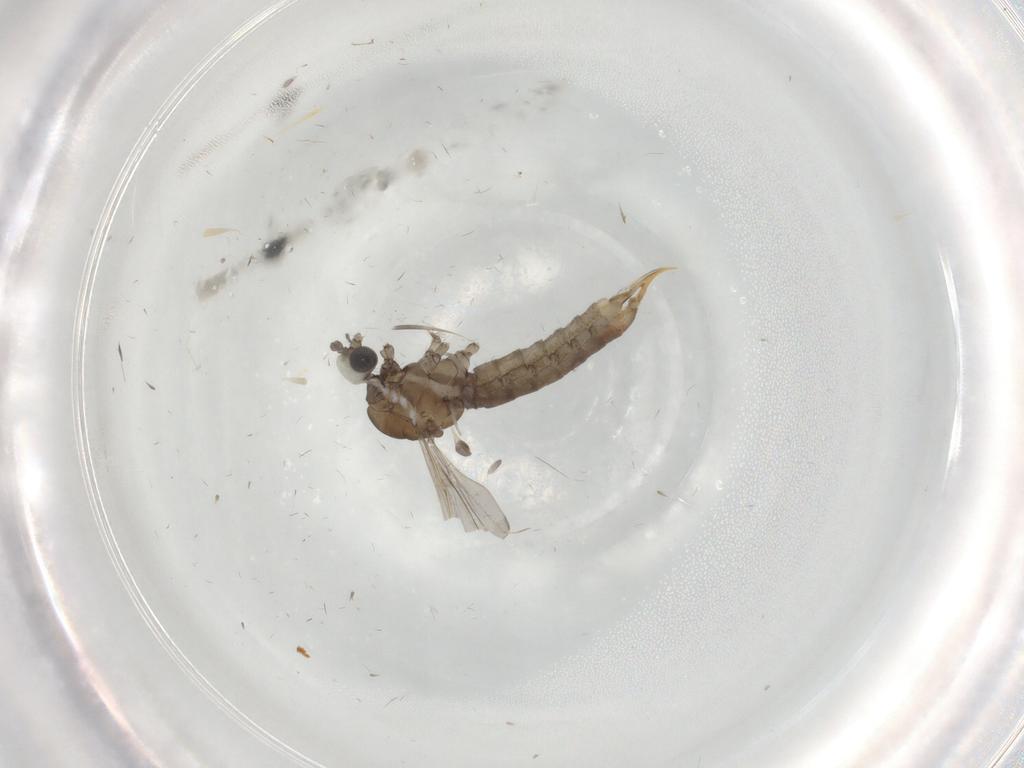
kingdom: Animalia
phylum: Arthropoda
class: Insecta
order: Diptera
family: Limoniidae
